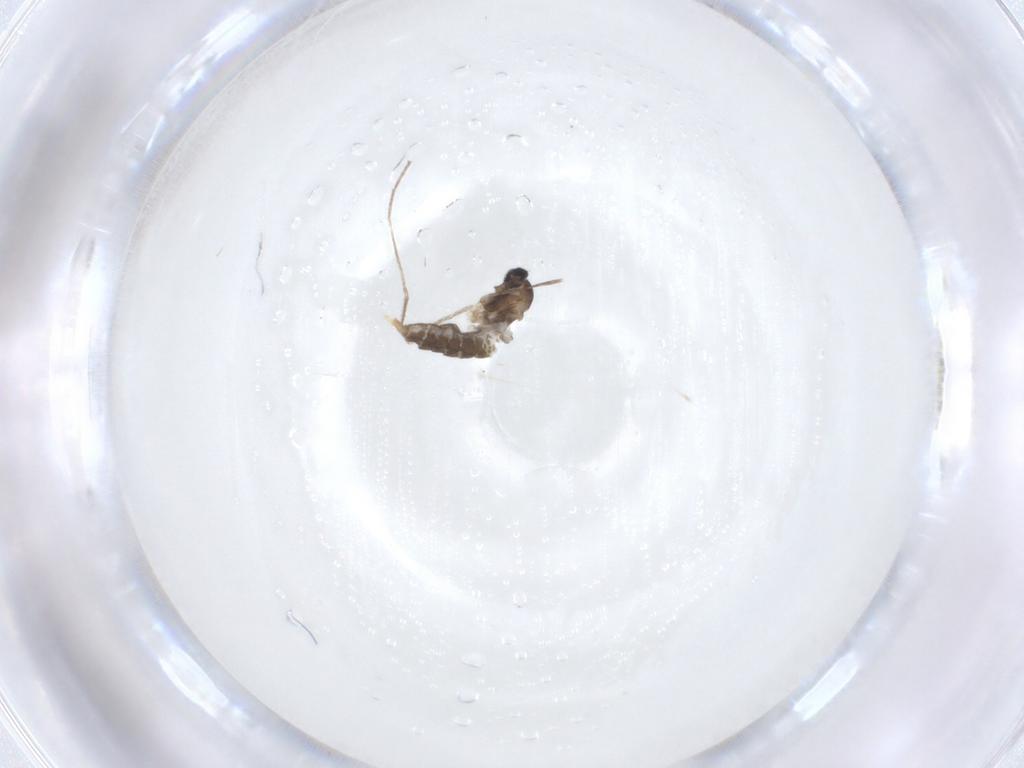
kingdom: Animalia
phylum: Arthropoda
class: Insecta
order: Diptera
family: Cecidomyiidae
